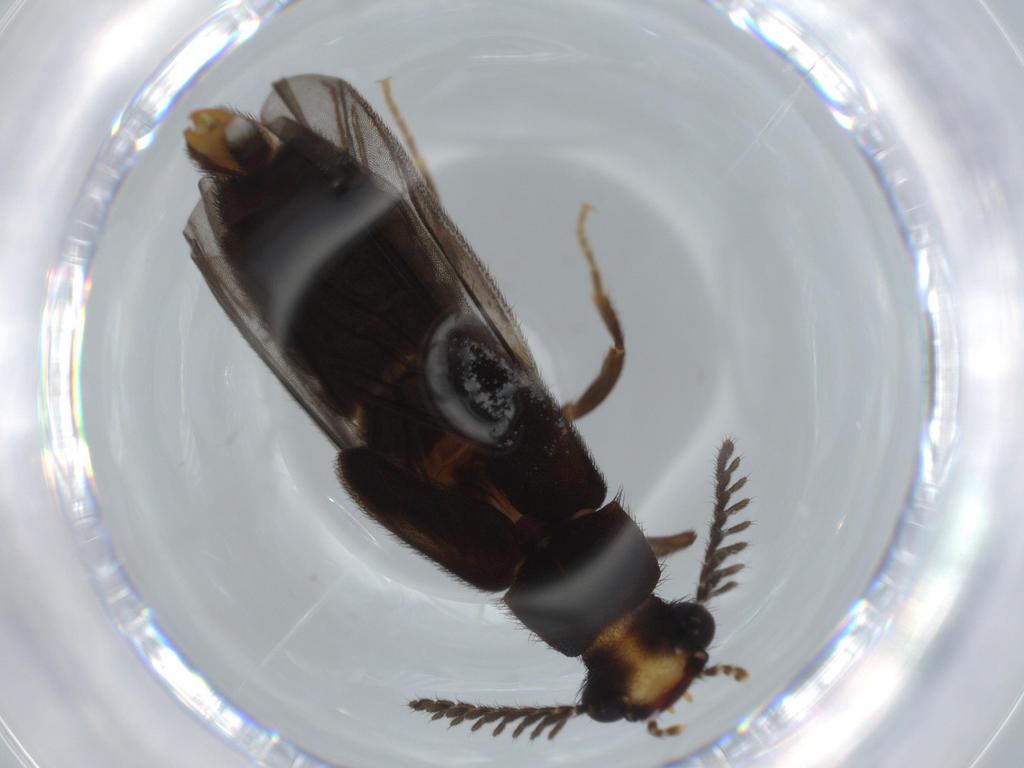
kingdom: Animalia
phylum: Arthropoda
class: Insecta
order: Coleoptera
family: Phengodidae
